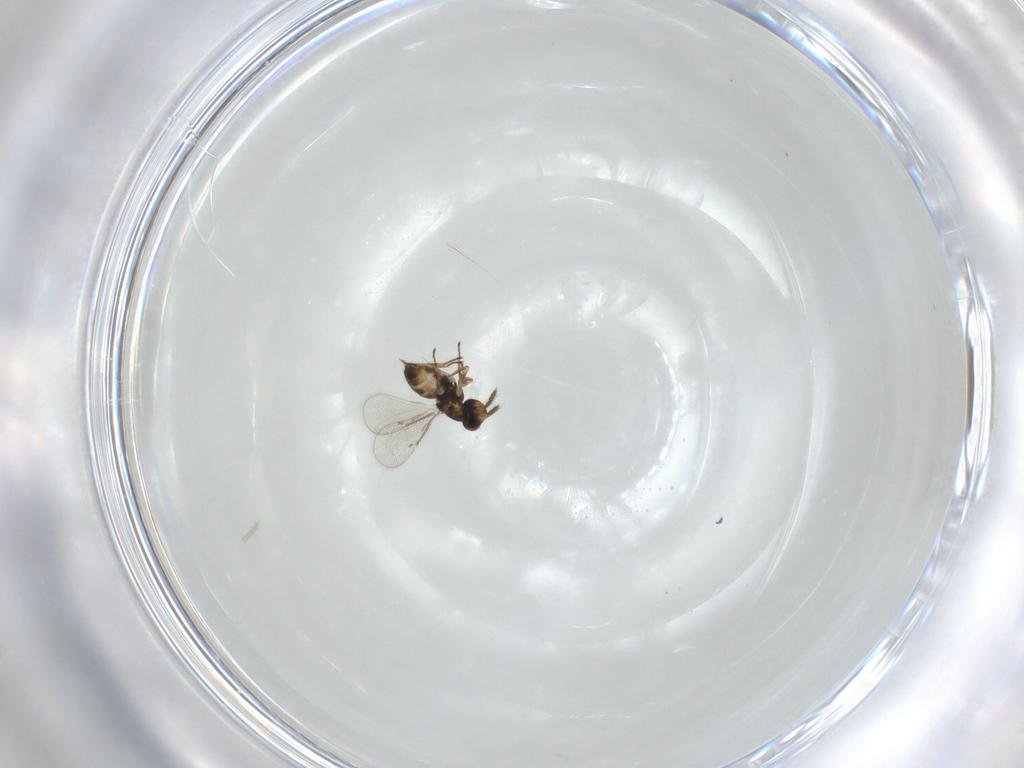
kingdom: Animalia
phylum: Arthropoda
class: Insecta
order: Hymenoptera
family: Eulophidae
